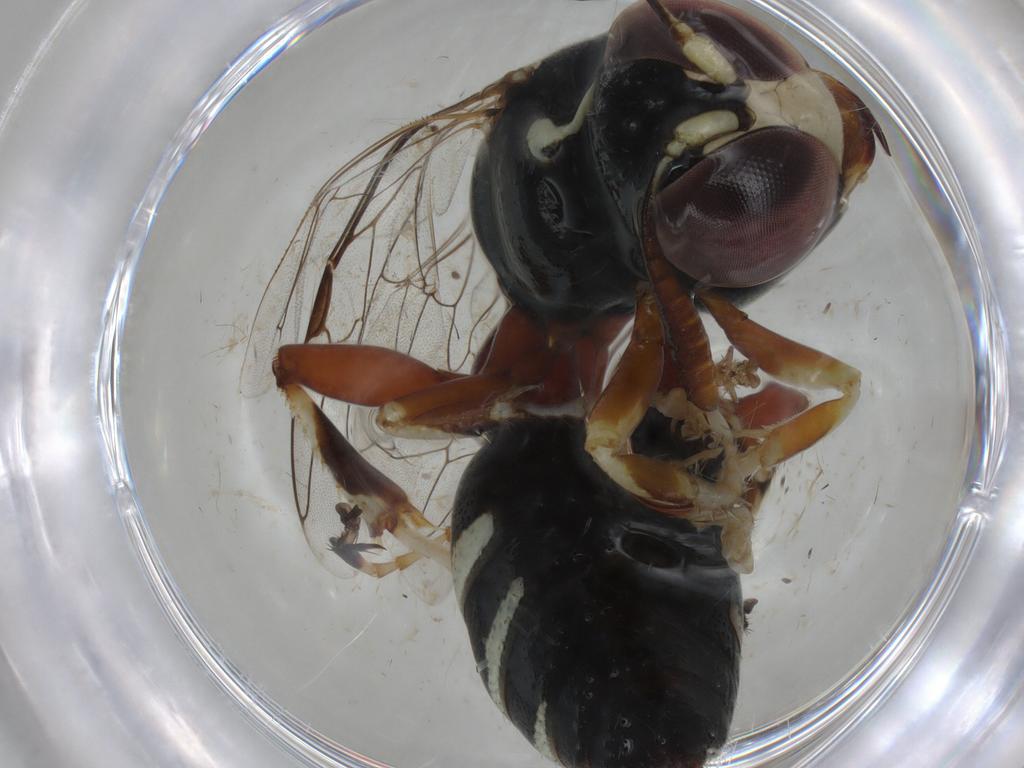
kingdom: Animalia
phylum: Arthropoda
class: Insecta
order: Hymenoptera
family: Bembicidae
